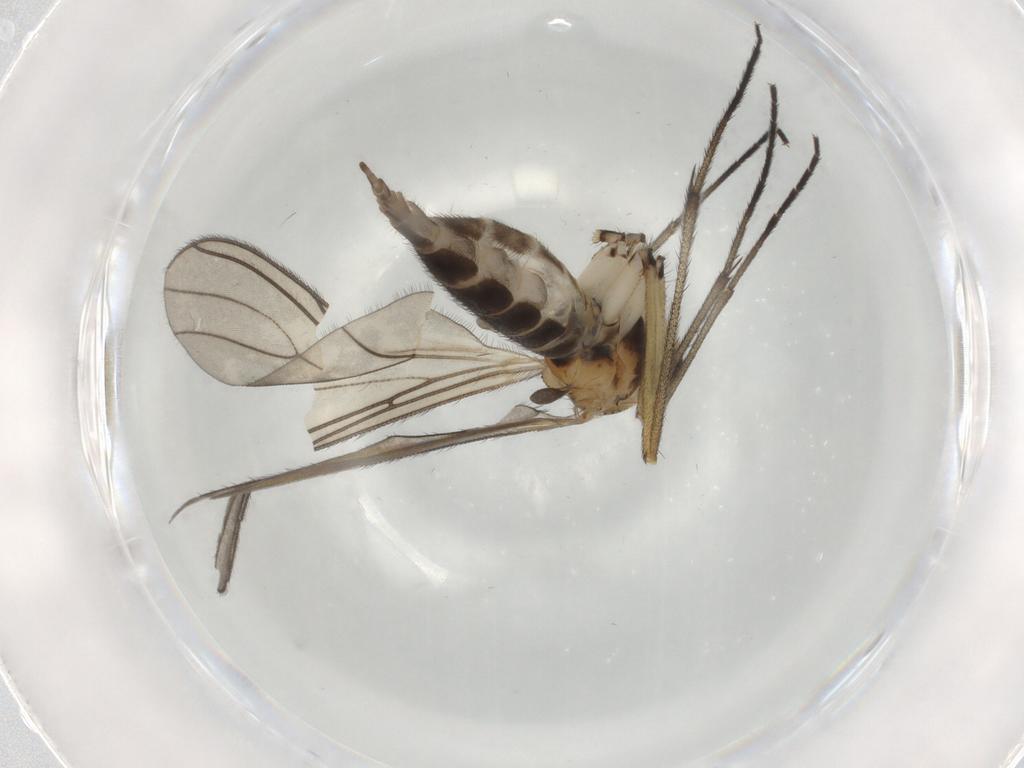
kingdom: Animalia
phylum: Arthropoda
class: Insecta
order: Diptera
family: Sciaridae
